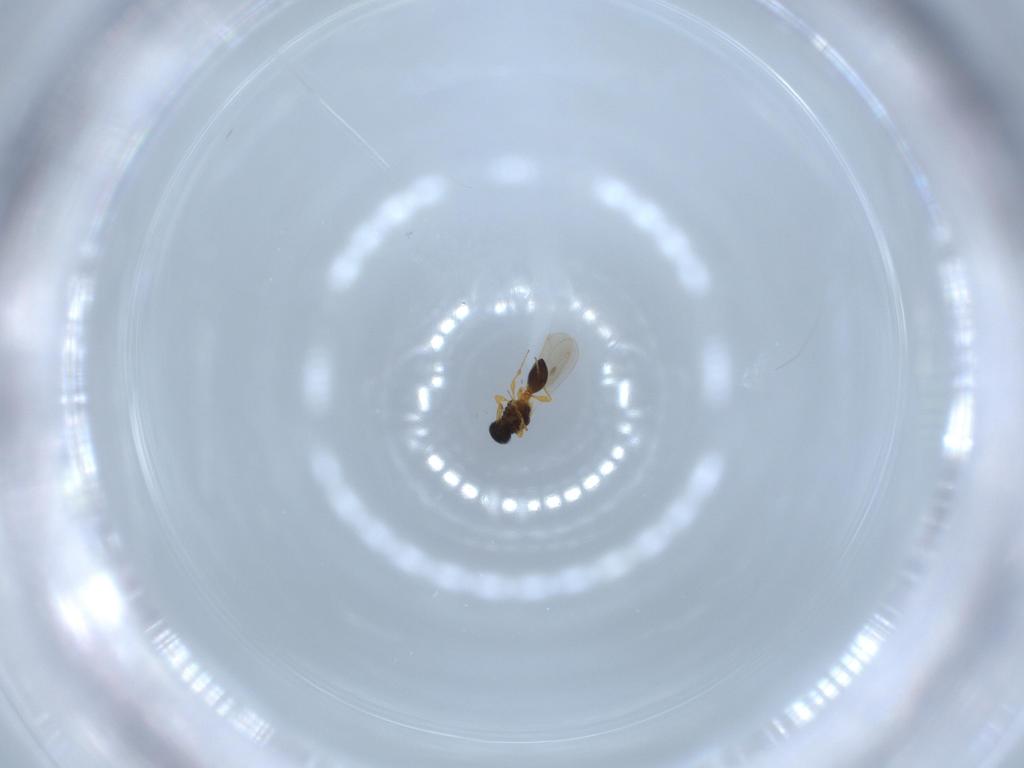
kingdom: Animalia
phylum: Arthropoda
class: Insecta
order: Hymenoptera
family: Platygastridae
